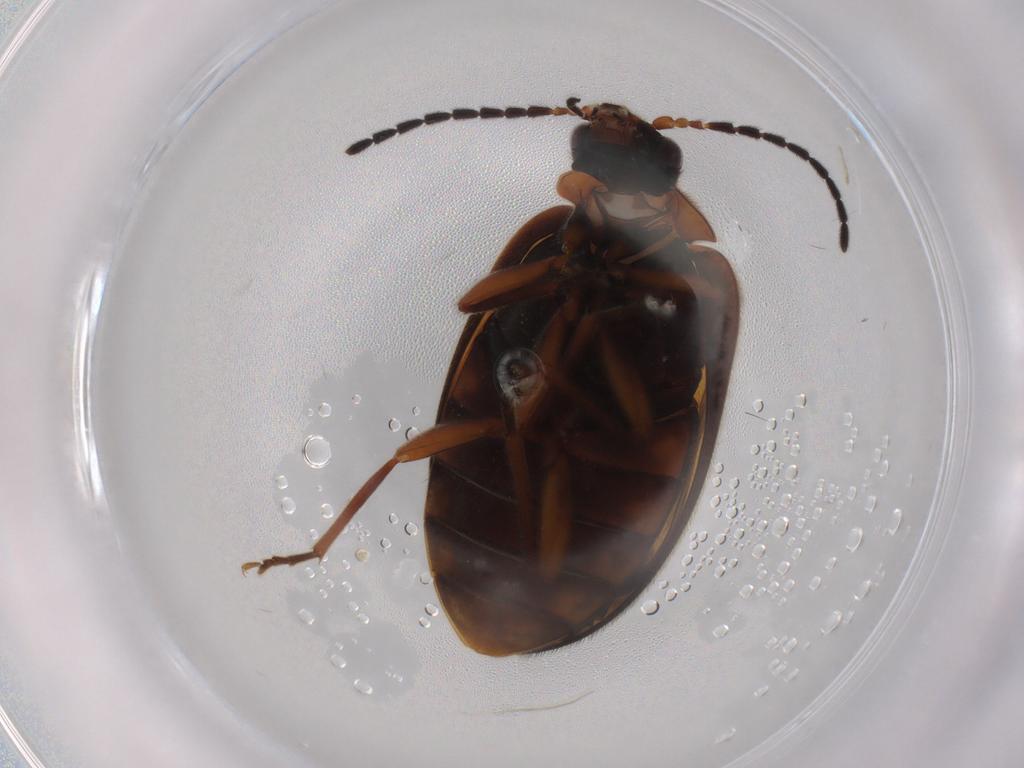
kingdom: Animalia
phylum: Arthropoda
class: Insecta
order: Coleoptera
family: Scirtidae
